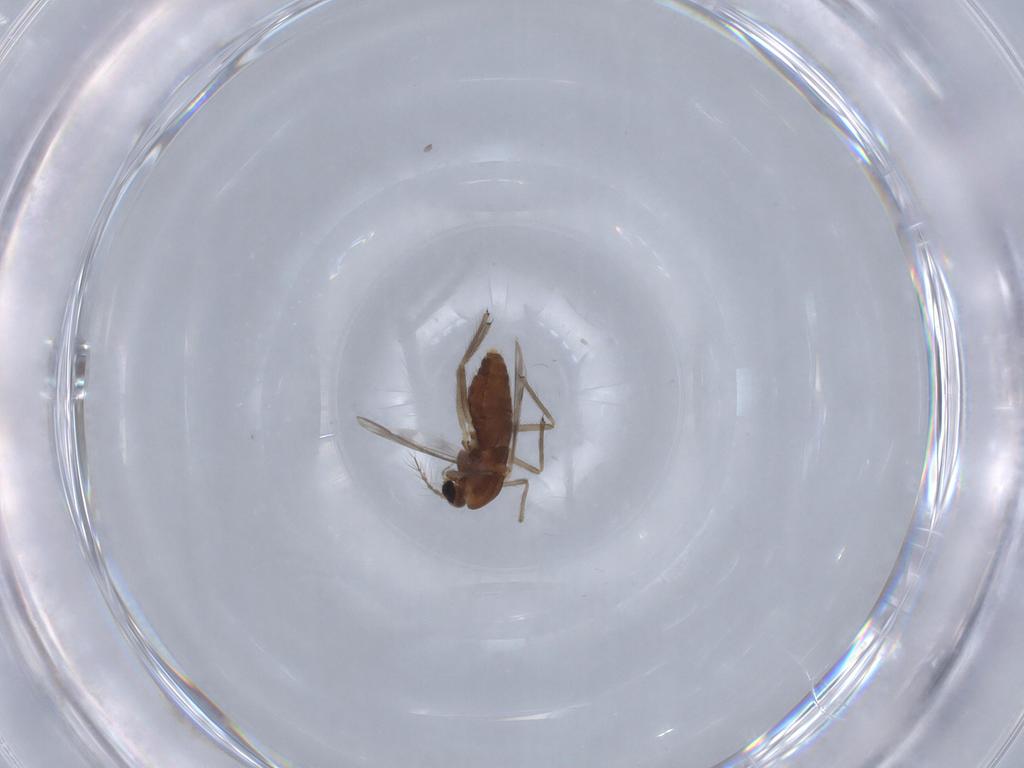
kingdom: Animalia
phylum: Arthropoda
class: Insecta
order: Diptera
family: Chironomidae
